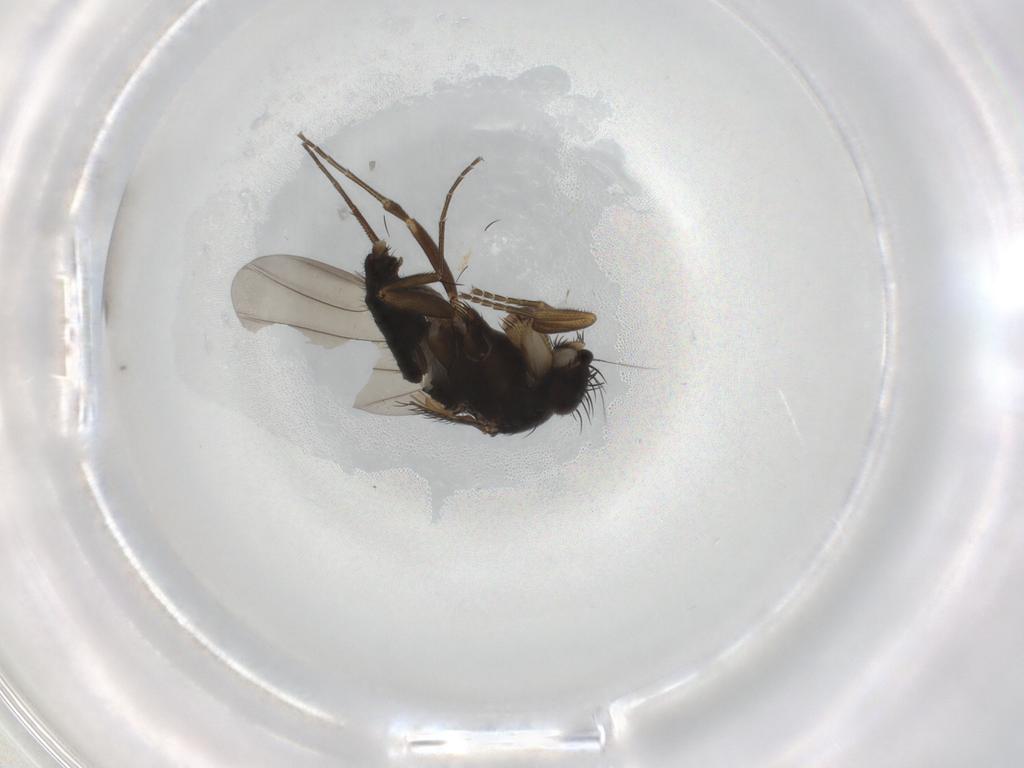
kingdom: Animalia
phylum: Arthropoda
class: Insecta
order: Diptera
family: Phoridae
